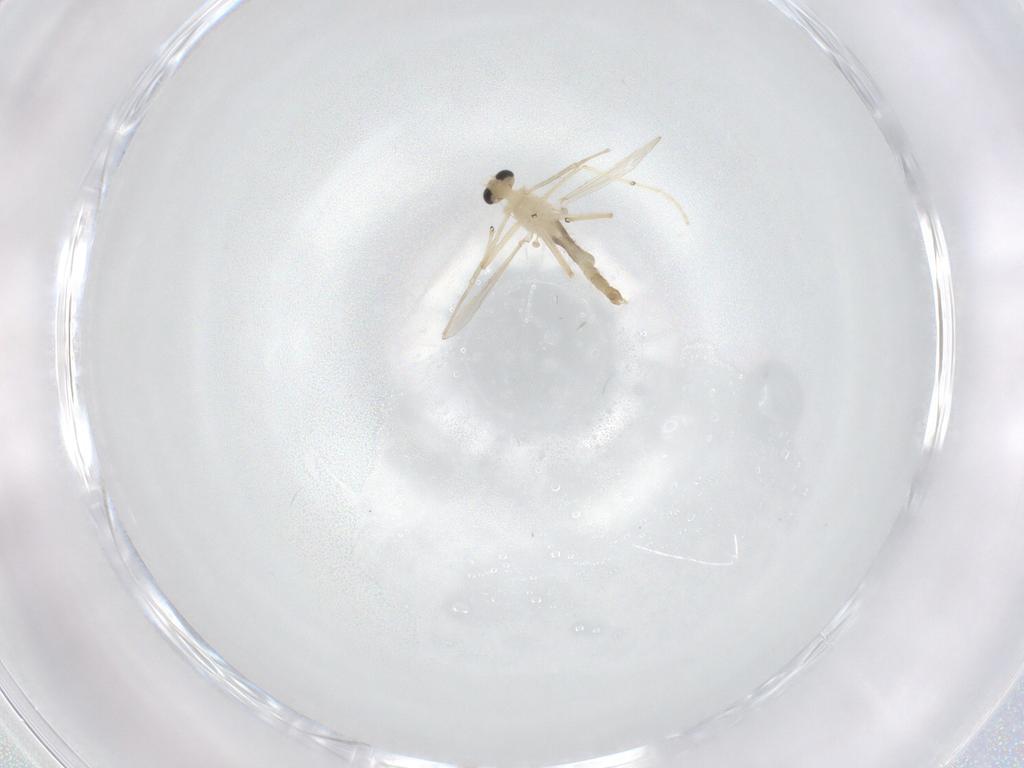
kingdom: Animalia
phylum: Arthropoda
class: Insecta
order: Diptera
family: Chironomidae
